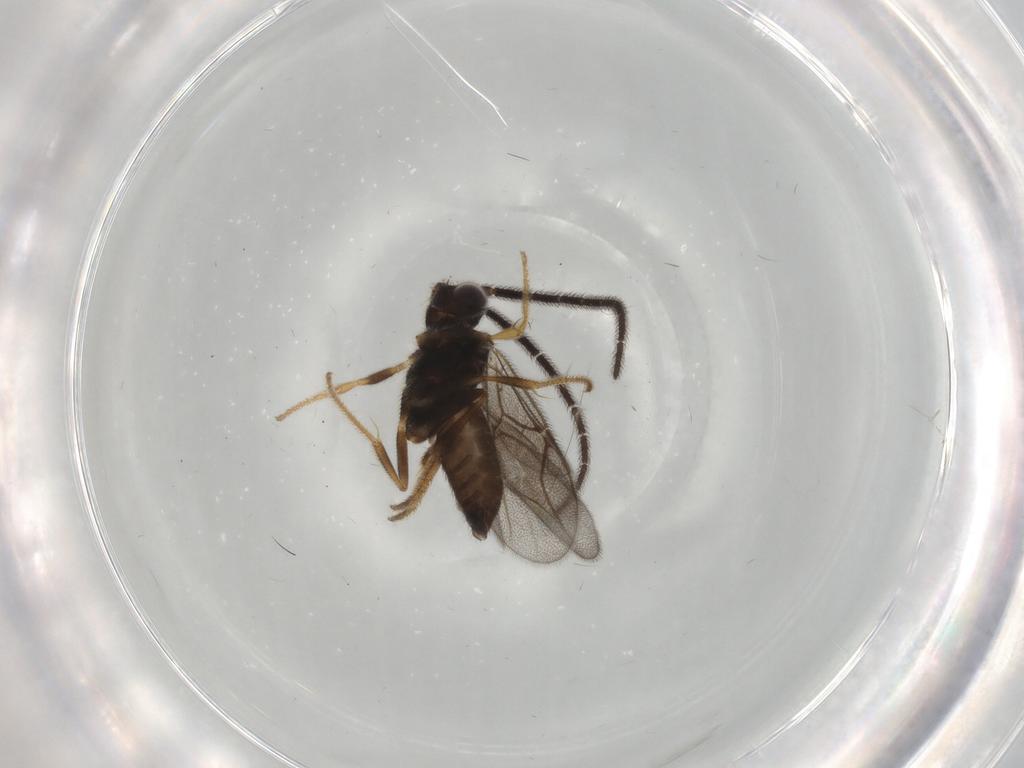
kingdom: Animalia
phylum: Arthropoda
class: Insecta
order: Hymenoptera
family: Dryinidae
